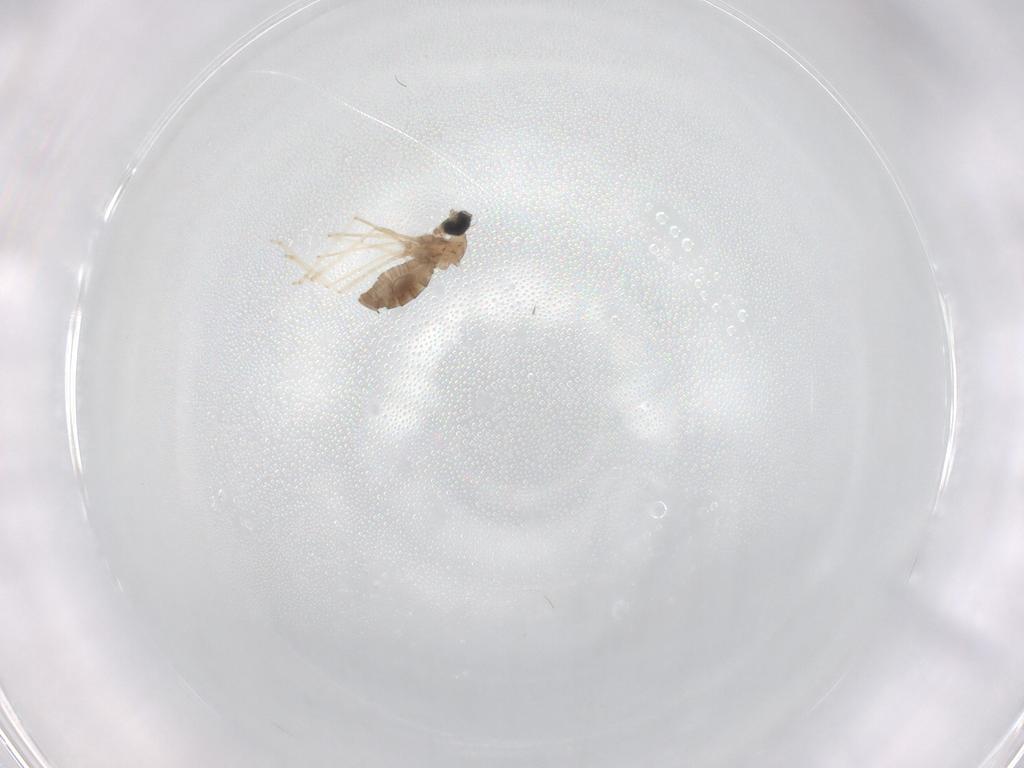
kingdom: Animalia
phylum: Arthropoda
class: Insecta
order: Diptera
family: Cecidomyiidae
